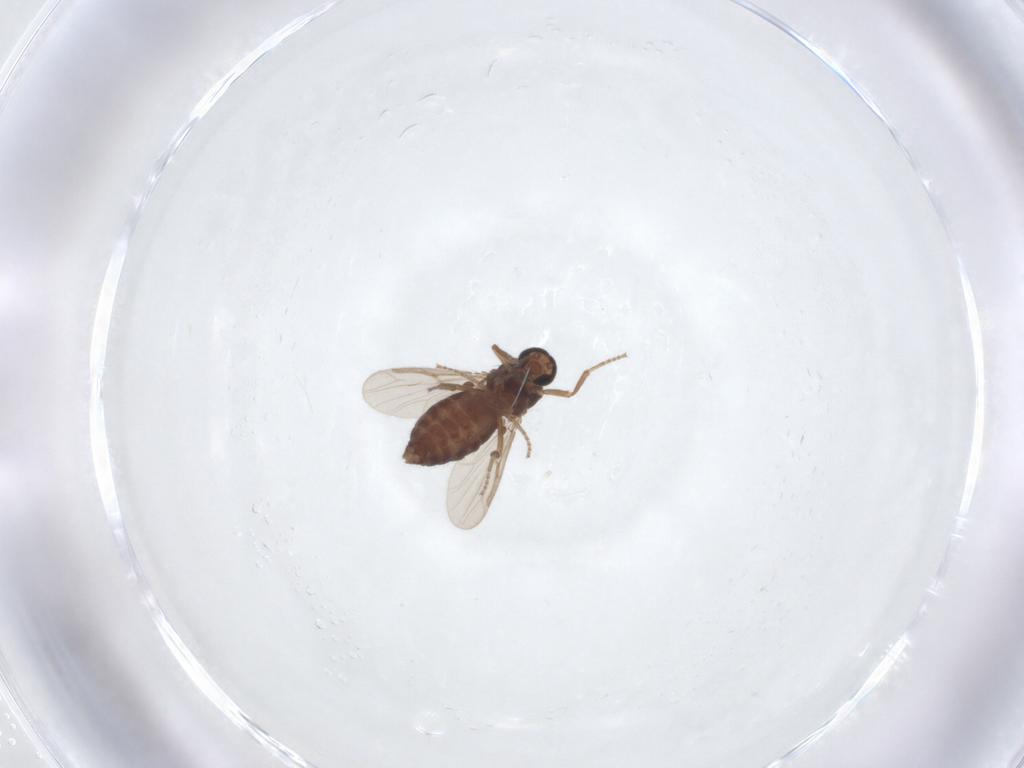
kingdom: Animalia
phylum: Arthropoda
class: Insecta
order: Diptera
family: Ceratopogonidae
